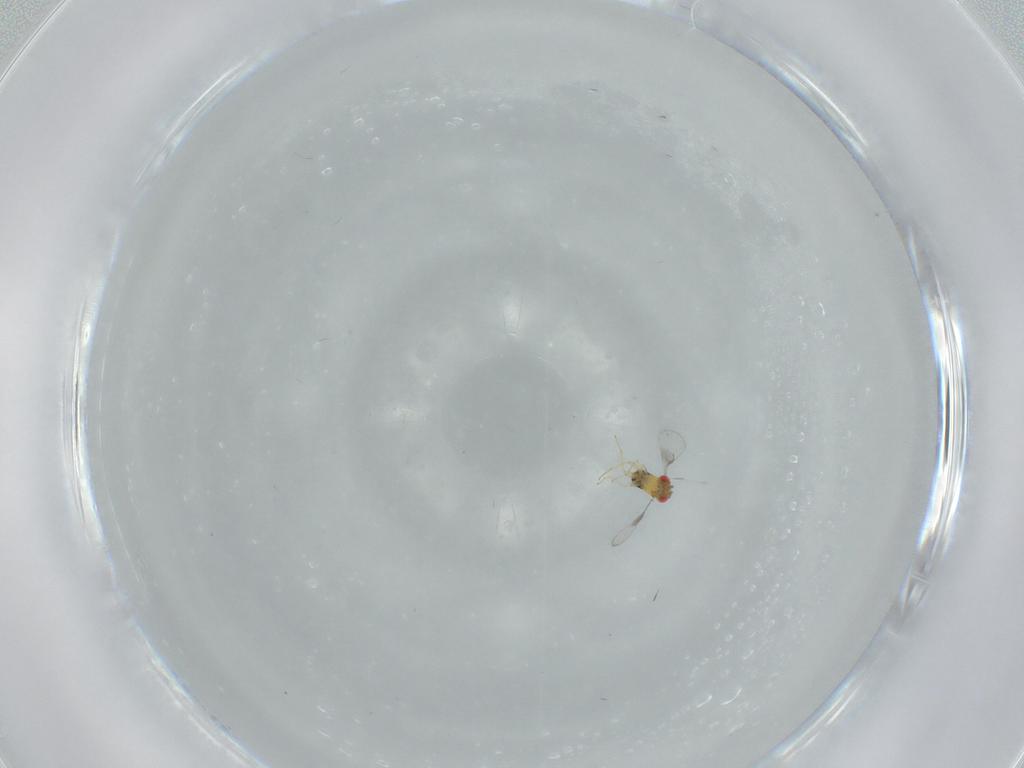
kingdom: Animalia
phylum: Arthropoda
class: Insecta
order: Hymenoptera
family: Trichogrammatidae
